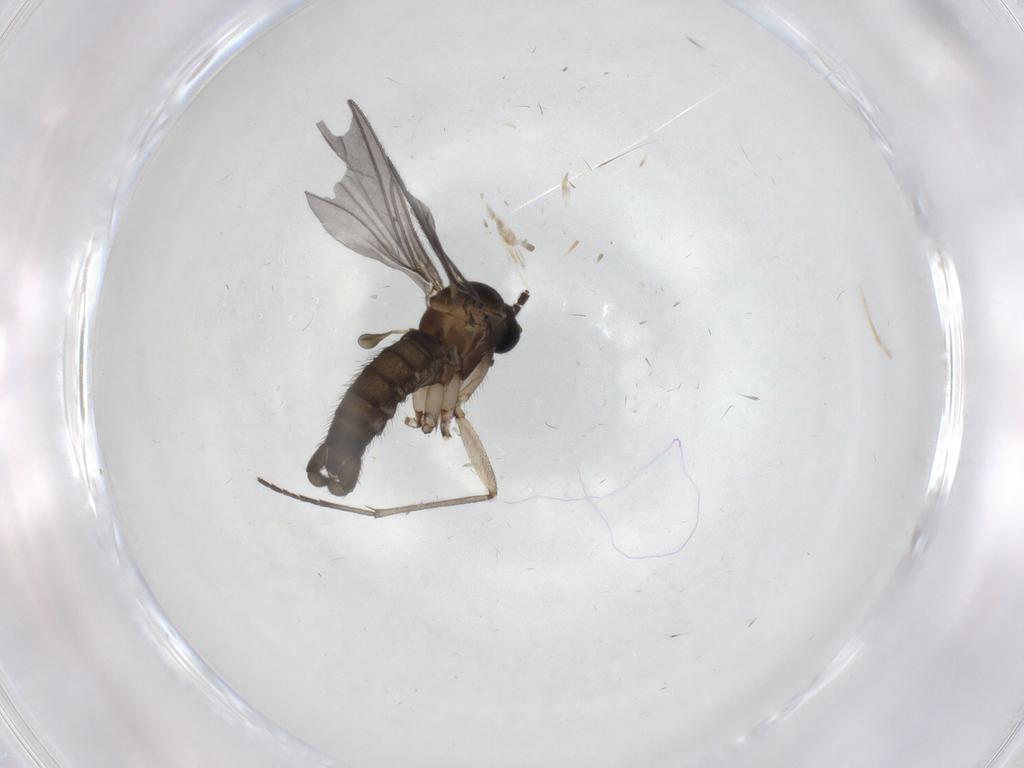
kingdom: Animalia
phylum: Arthropoda
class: Insecta
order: Diptera
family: Sciaridae
